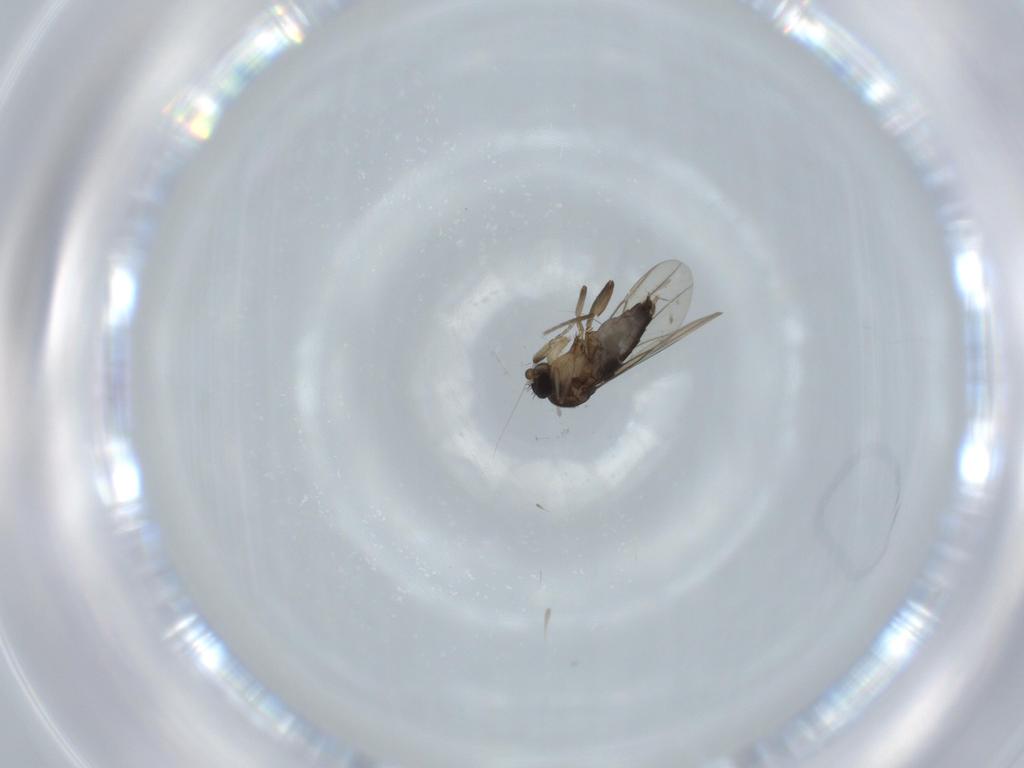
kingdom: Animalia
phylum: Arthropoda
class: Insecta
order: Diptera
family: Phoridae
